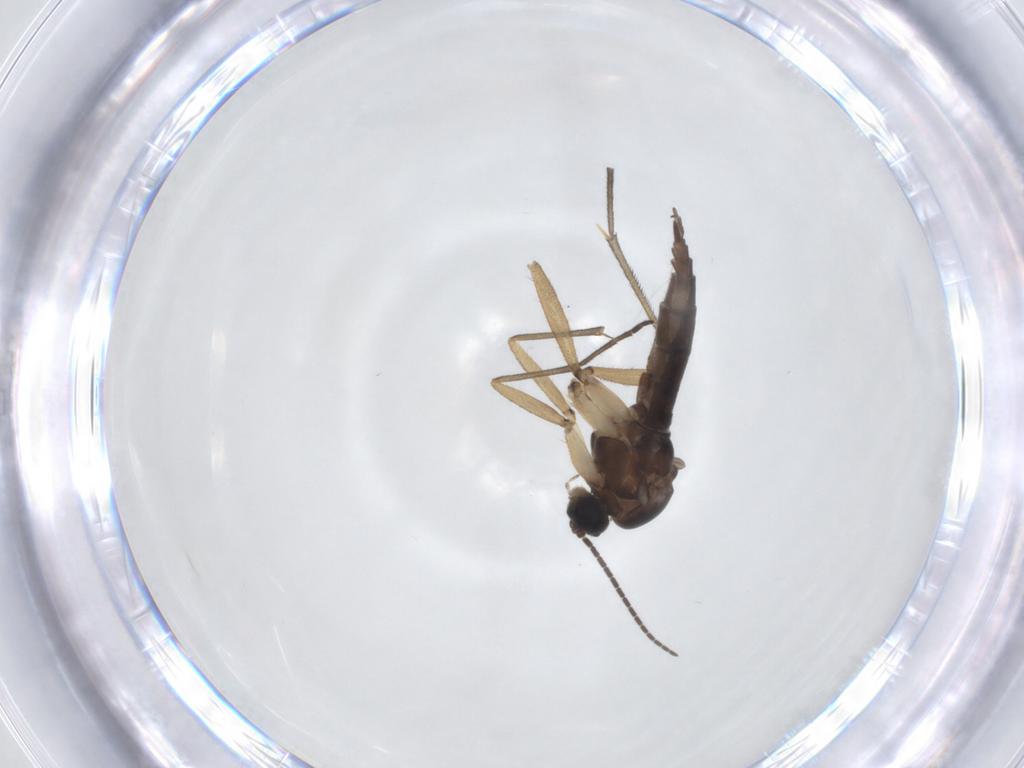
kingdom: Animalia
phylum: Arthropoda
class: Insecta
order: Diptera
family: Sciaridae
